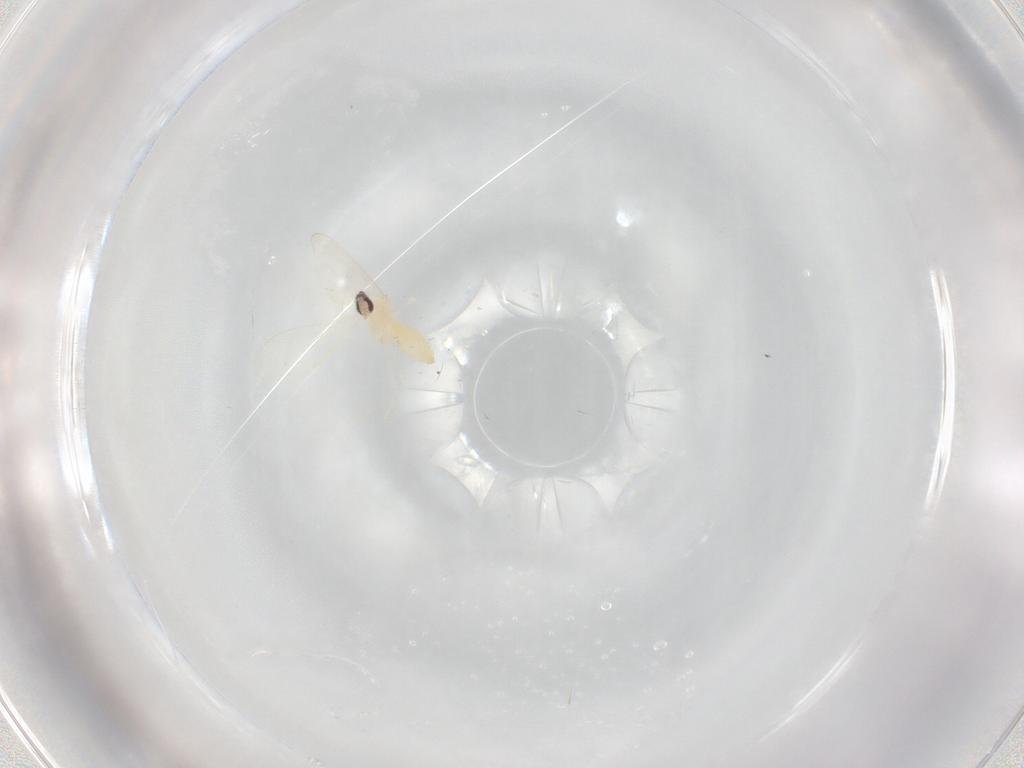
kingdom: Animalia
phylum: Arthropoda
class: Insecta
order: Diptera
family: Cecidomyiidae
